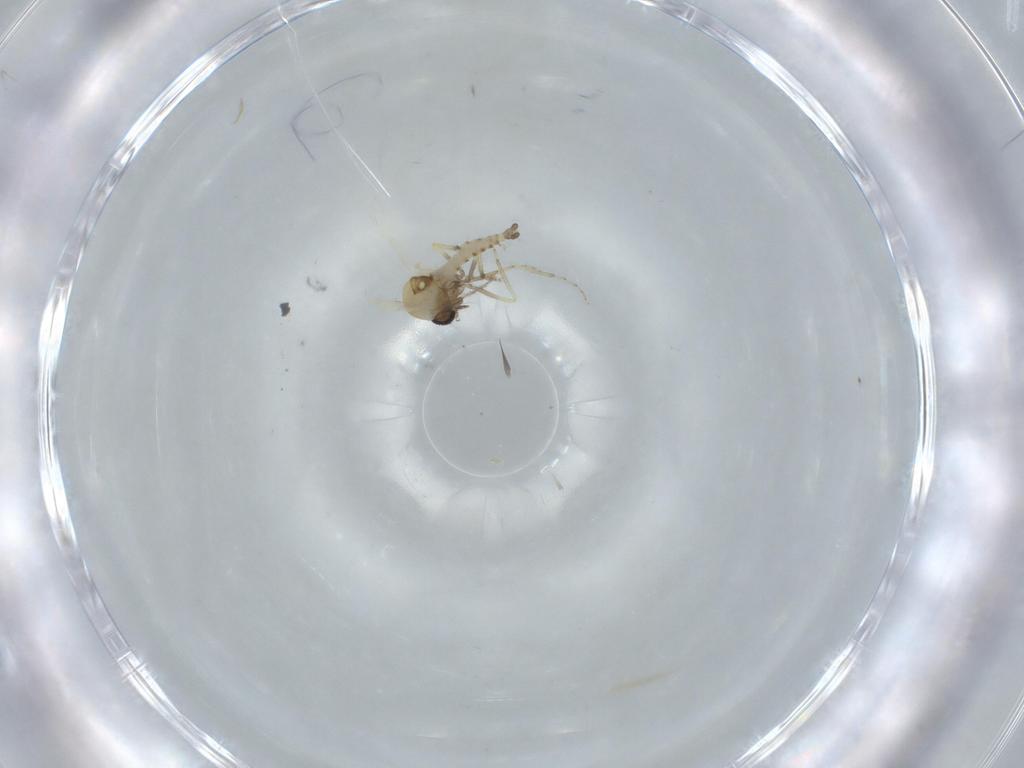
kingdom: Animalia
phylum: Arthropoda
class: Insecta
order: Diptera
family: Ceratopogonidae
